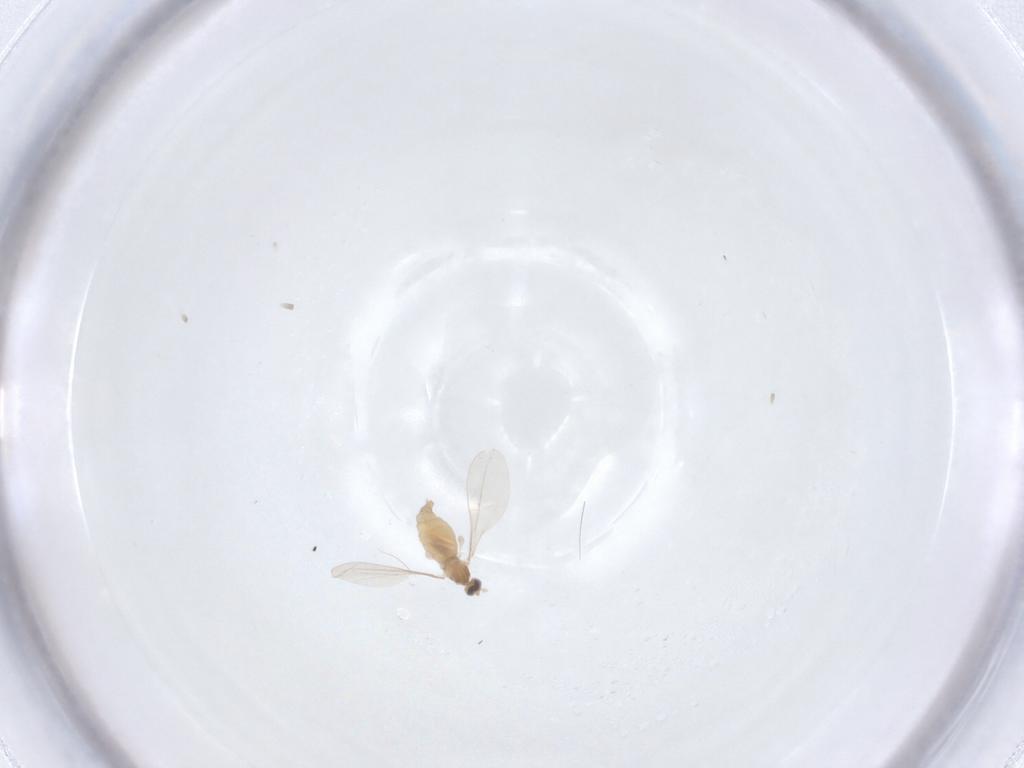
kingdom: Animalia
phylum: Arthropoda
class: Insecta
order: Diptera
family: Cecidomyiidae
